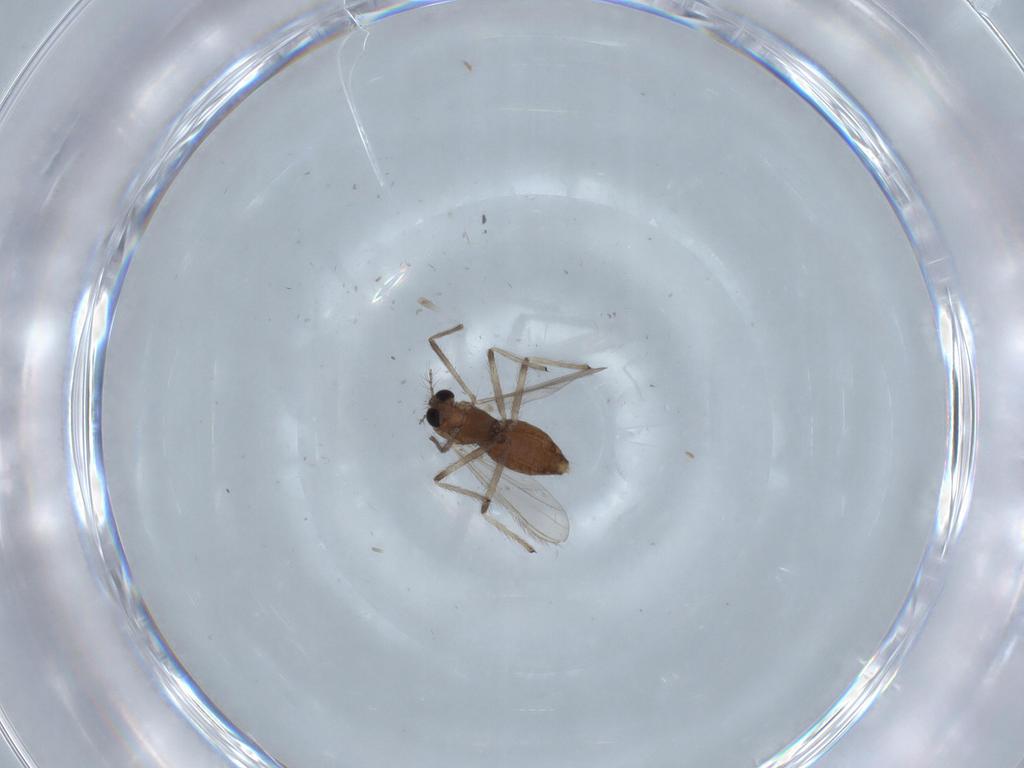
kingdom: Animalia
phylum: Arthropoda
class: Insecta
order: Diptera
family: Chironomidae
